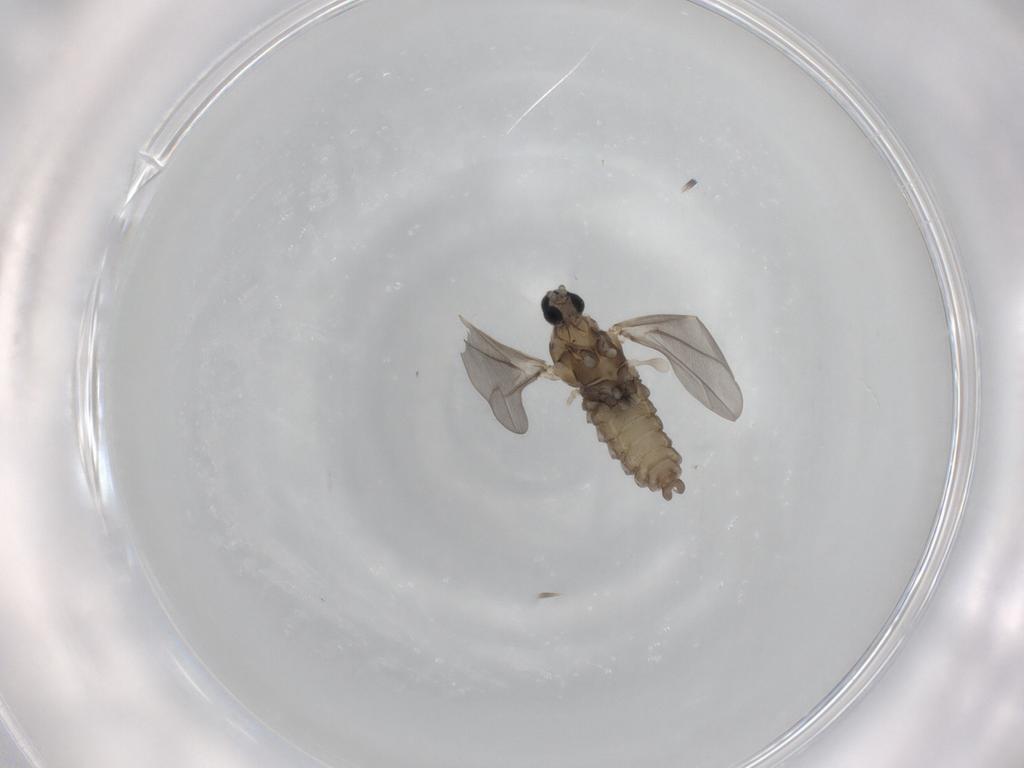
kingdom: Animalia
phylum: Arthropoda
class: Insecta
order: Diptera
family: Cecidomyiidae
